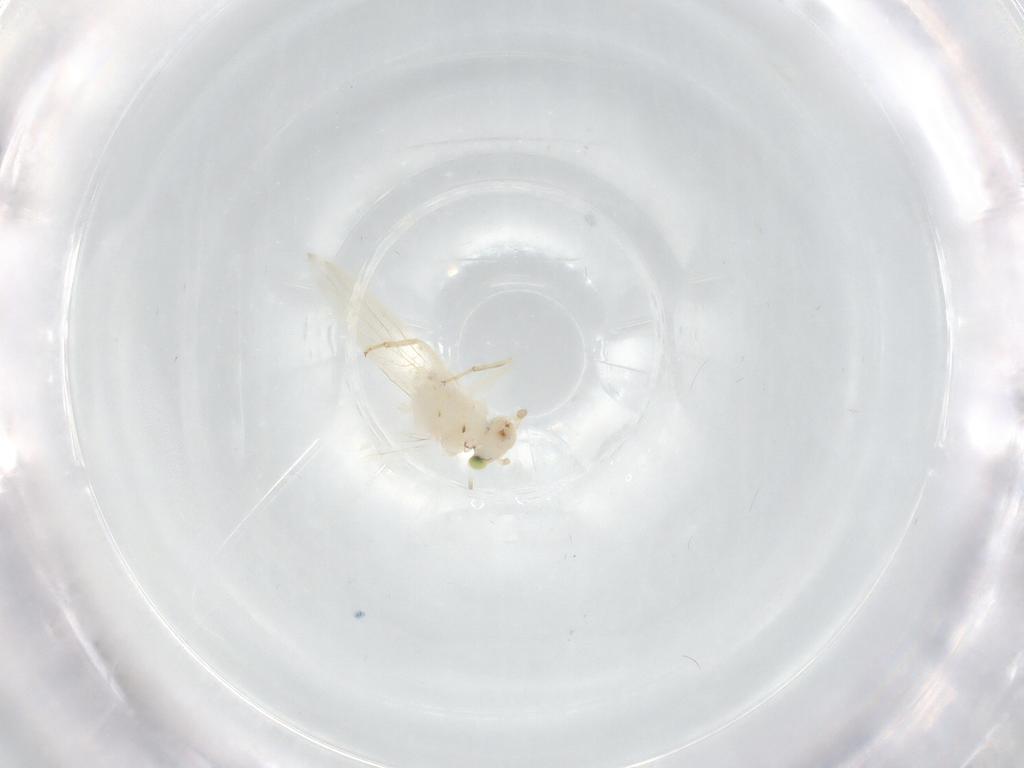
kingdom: Animalia
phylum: Arthropoda
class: Insecta
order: Psocodea
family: Lepidopsocidae
